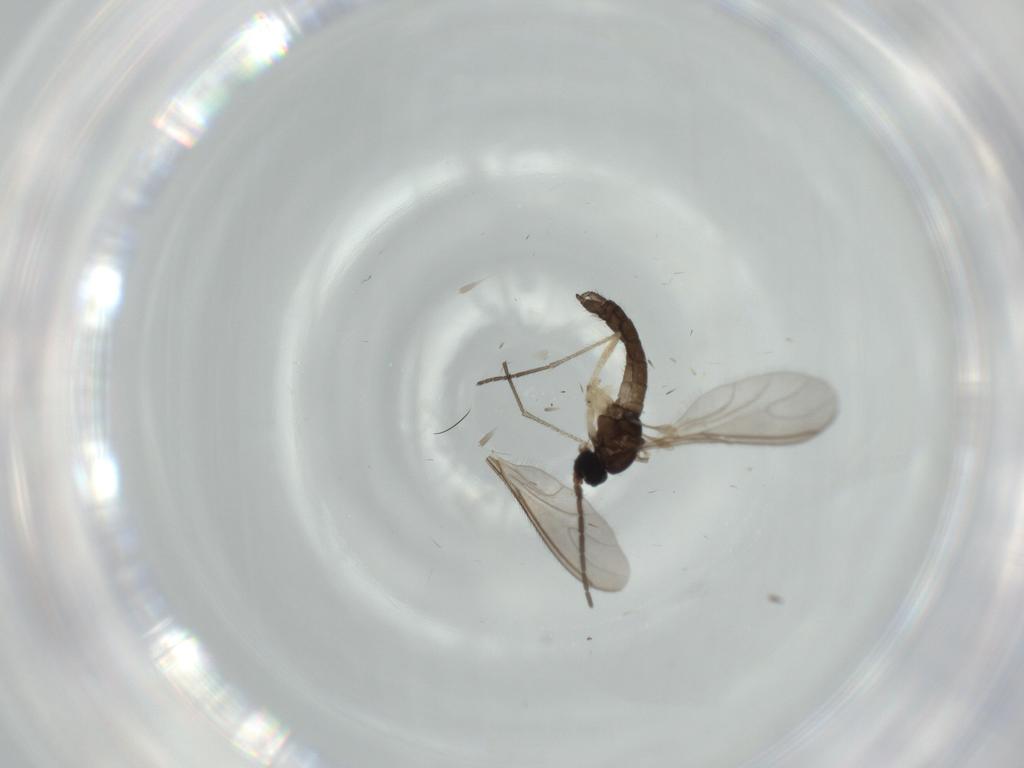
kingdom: Animalia
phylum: Arthropoda
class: Insecta
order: Diptera
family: Sciaridae
